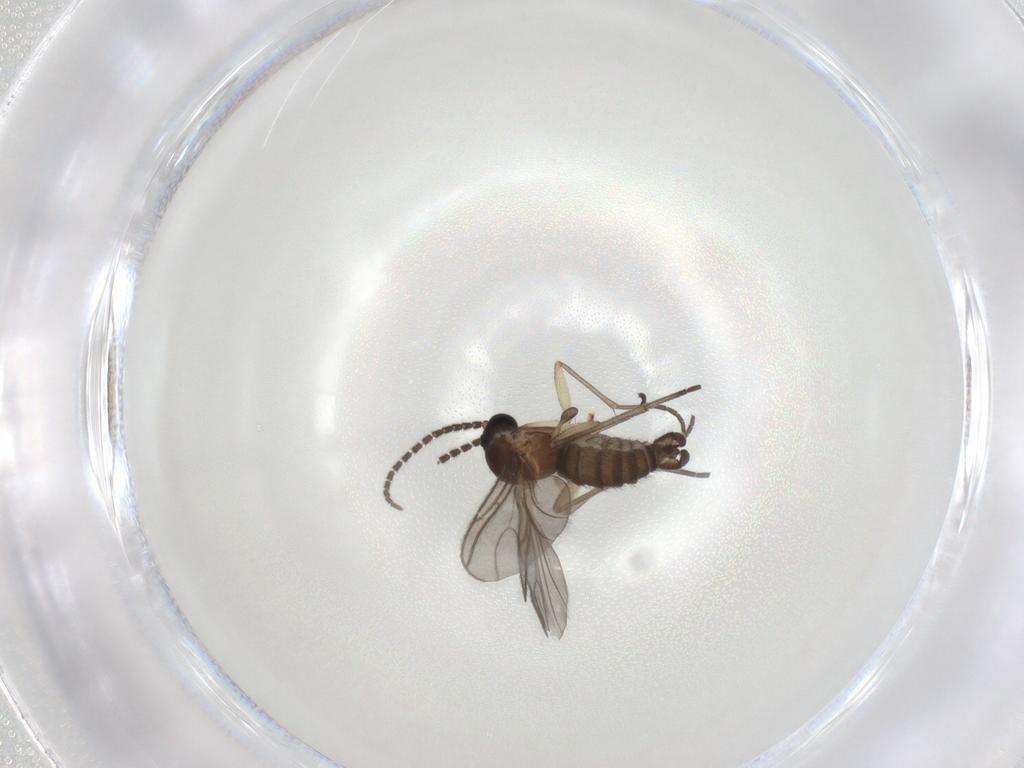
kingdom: Animalia
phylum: Arthropoda
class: Insecta
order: Diptera
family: Sciaridae
